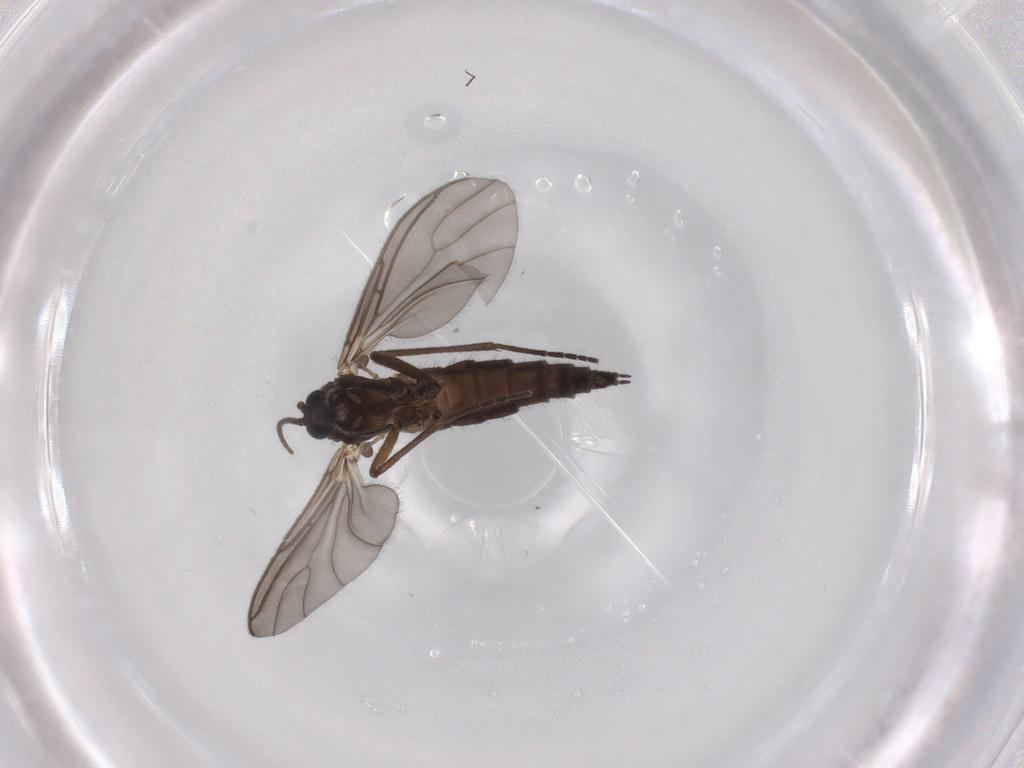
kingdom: Animalia
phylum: Arthropoda
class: Insecta
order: Diptera
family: Sciaridae
